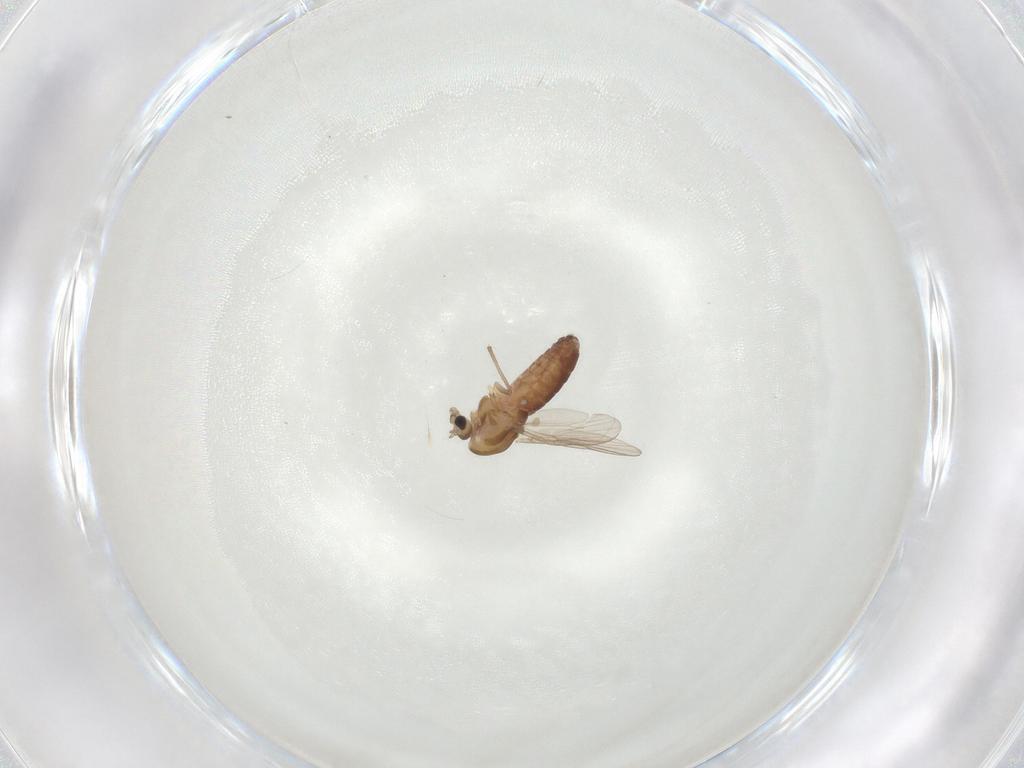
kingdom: Animalia
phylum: Arthropoda
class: Insecta
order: Diptera
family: Chironomidae
